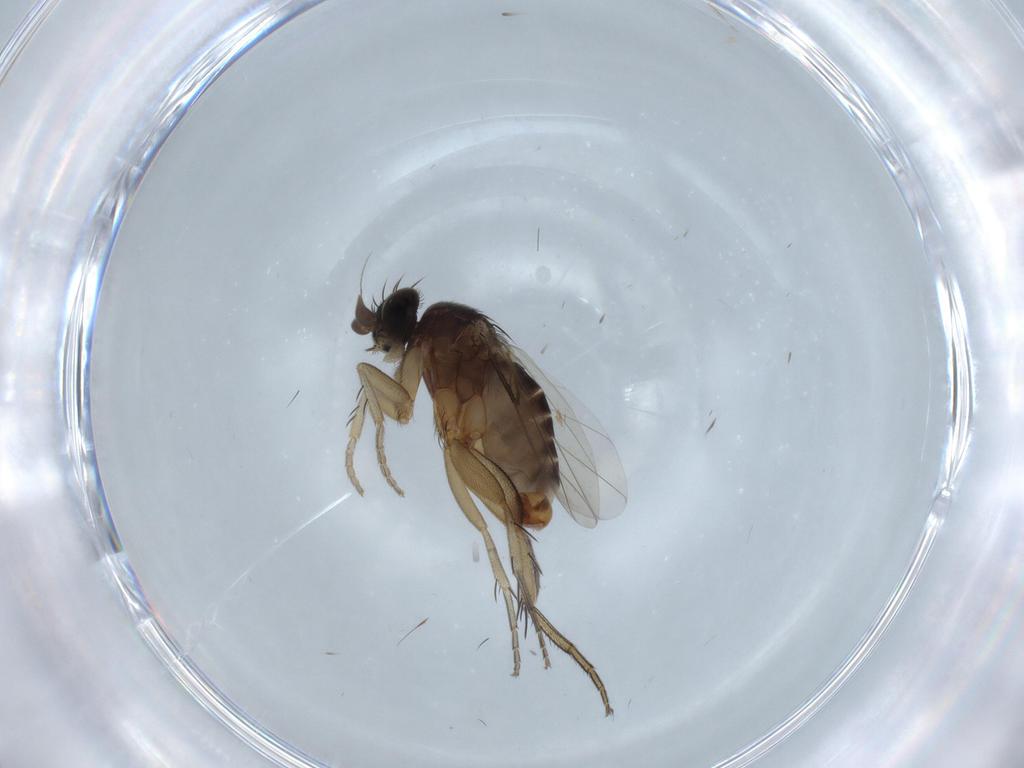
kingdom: Animalia
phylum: Arthropoda
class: Insecta
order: Diptera
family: Phoridae
